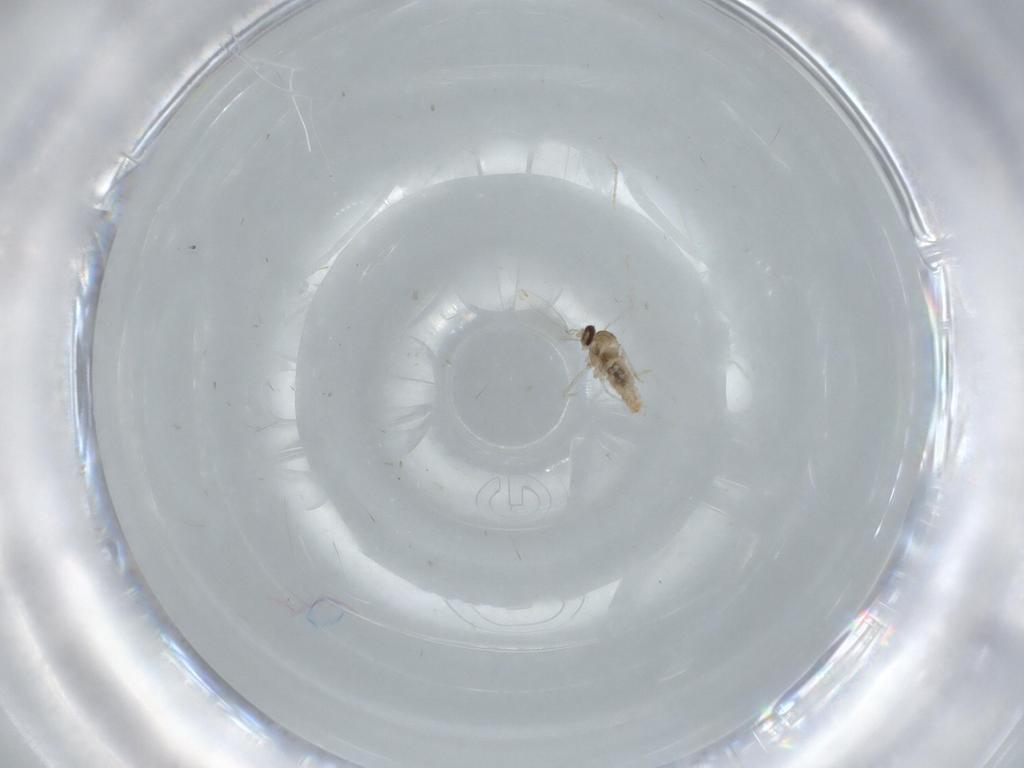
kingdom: Animalia
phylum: Arthropoda
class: Insecta
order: Diptera
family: Cecidomyiidae
